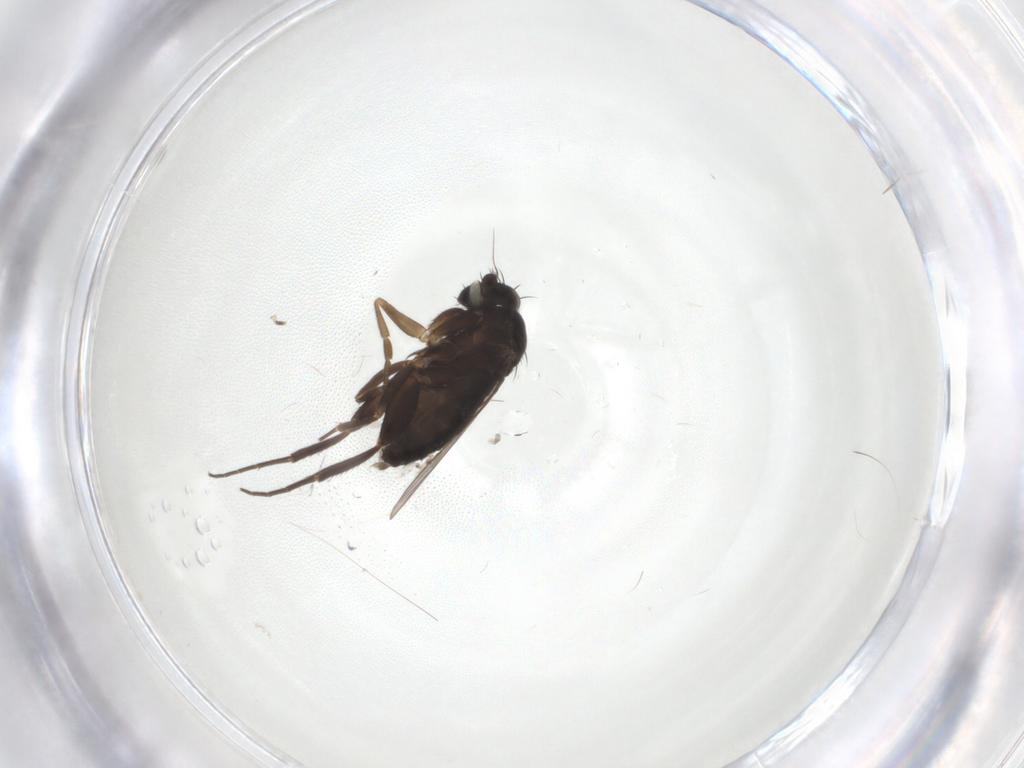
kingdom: Animalia
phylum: Arthropoda
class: Insecta
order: Diptera
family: Phoridae
